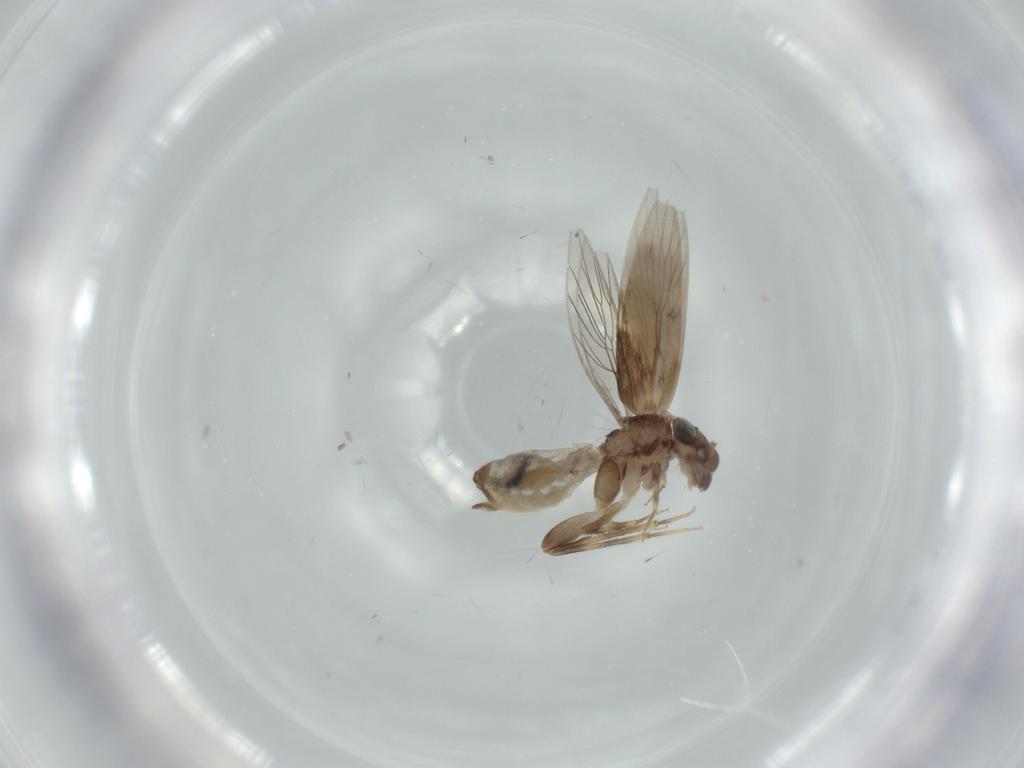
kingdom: Animalia
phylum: Arthropoda
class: Insecta
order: Psocodea
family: Lepidopsocidae
